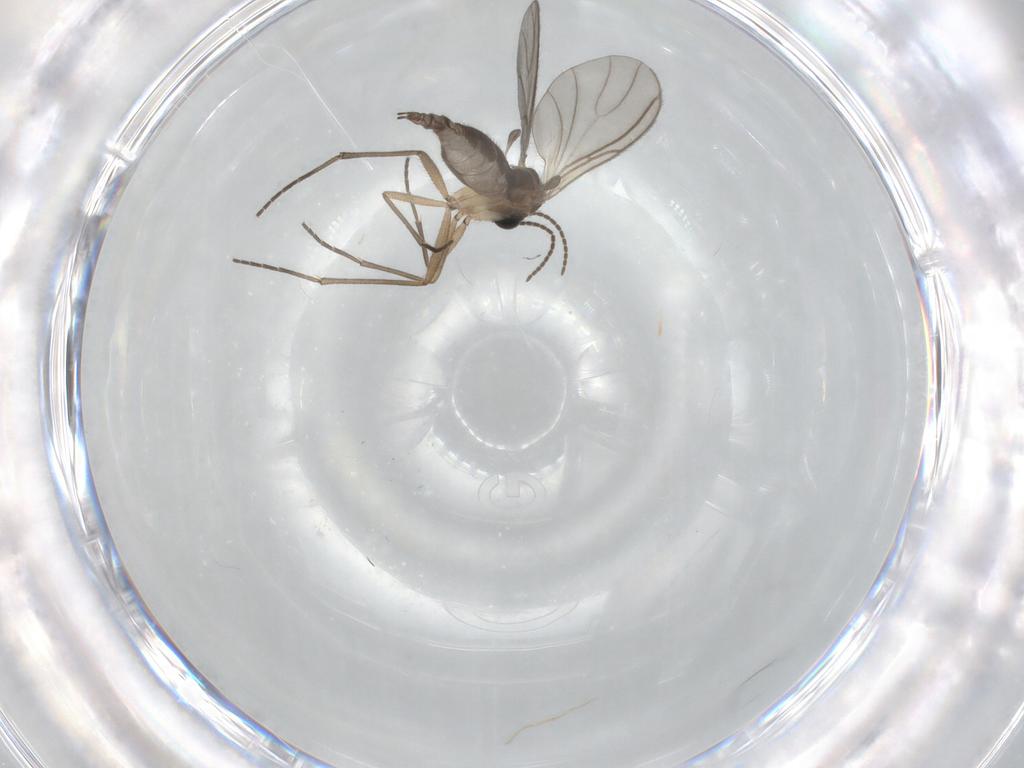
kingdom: Animalia
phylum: Arthropoda
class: Insecta
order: Diptera
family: Sciaridae
